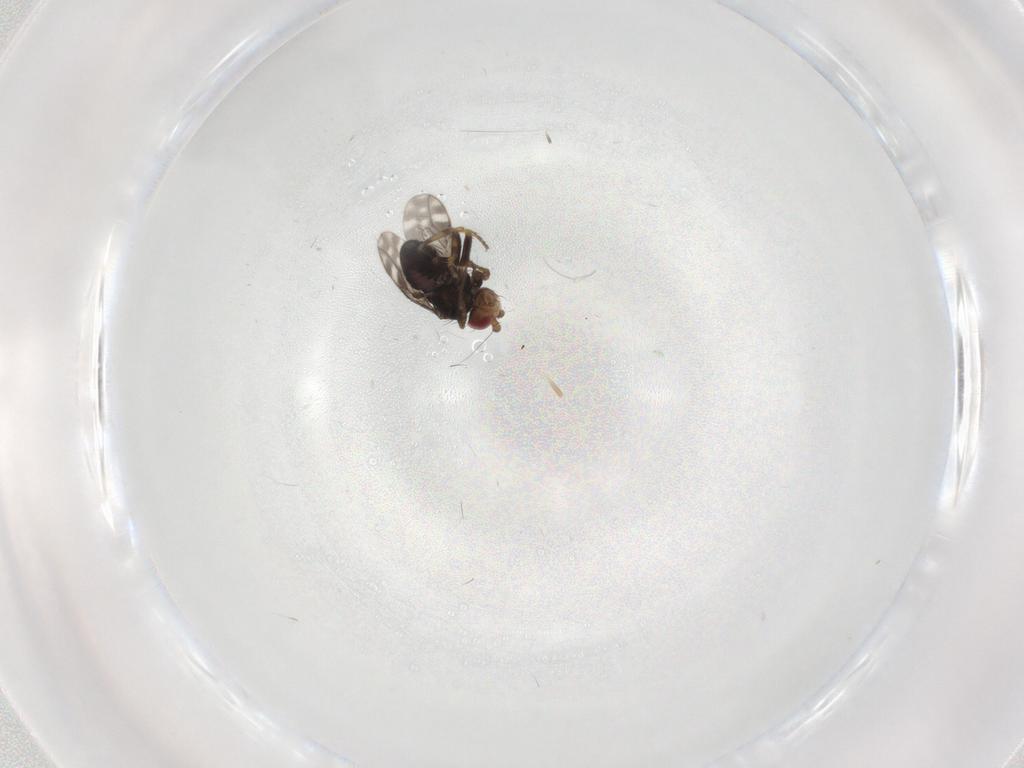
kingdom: Animalia
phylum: Arthropoda
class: Insecta
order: Diptera
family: Sphaeroceridae
